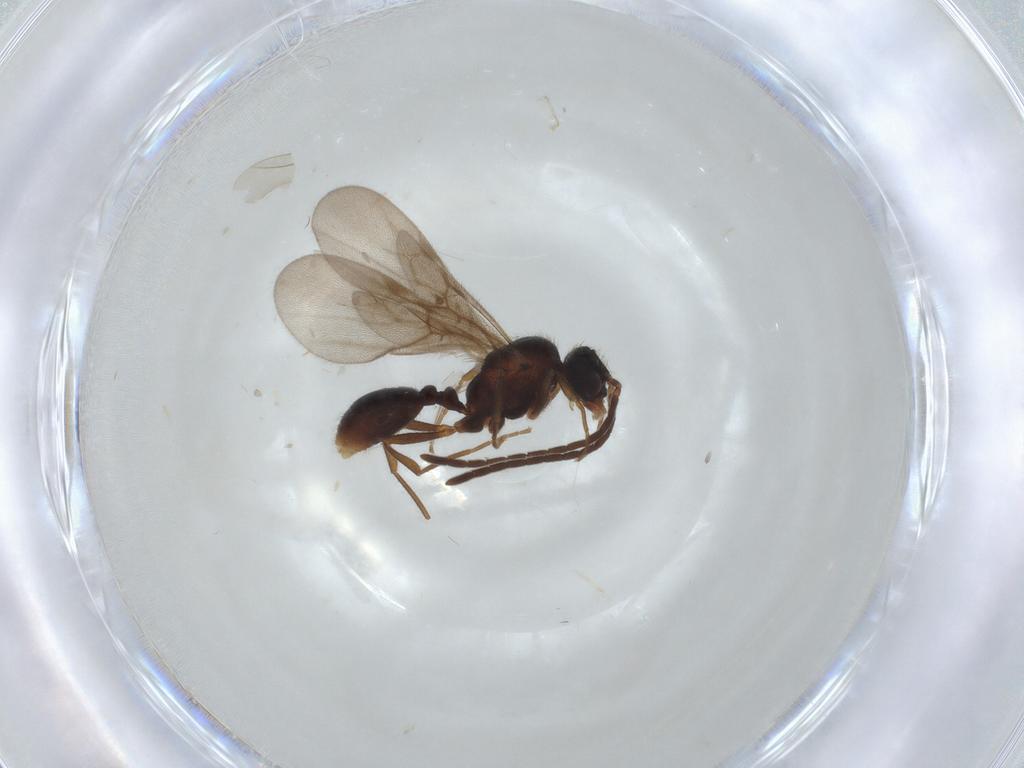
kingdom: Animalia
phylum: Arthropoda
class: Insecta
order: Hymenoptera
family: Formicidae
